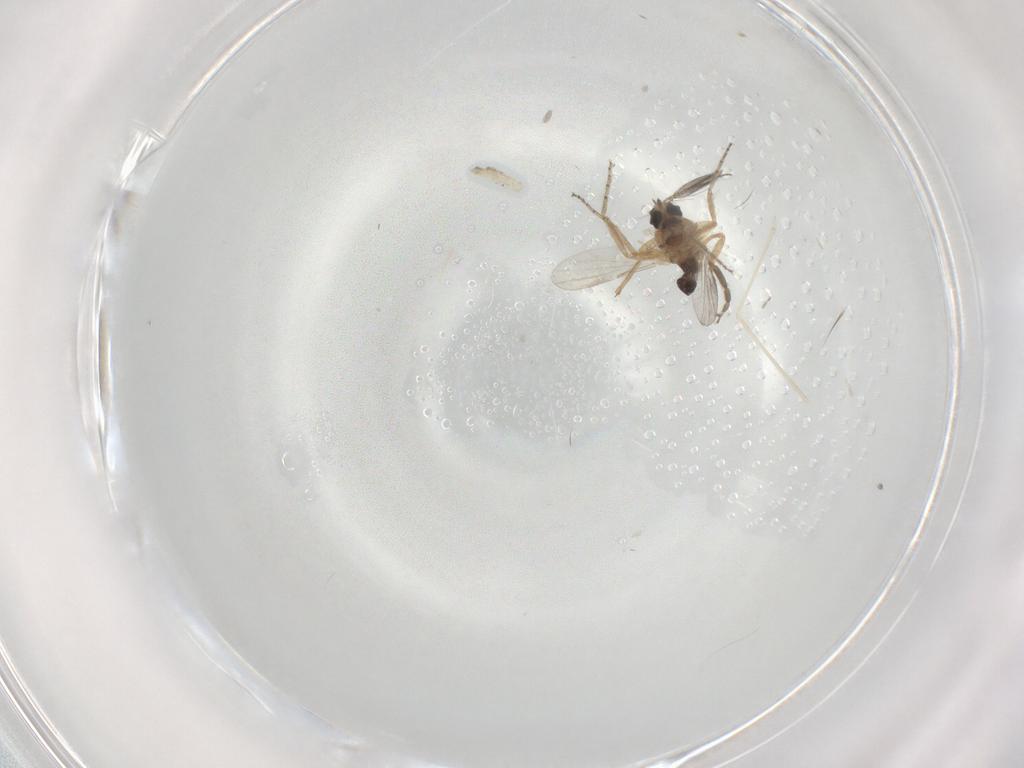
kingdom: Animalia
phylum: Arthropoda
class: Insecta
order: Diptera
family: Cecidomyiidae
